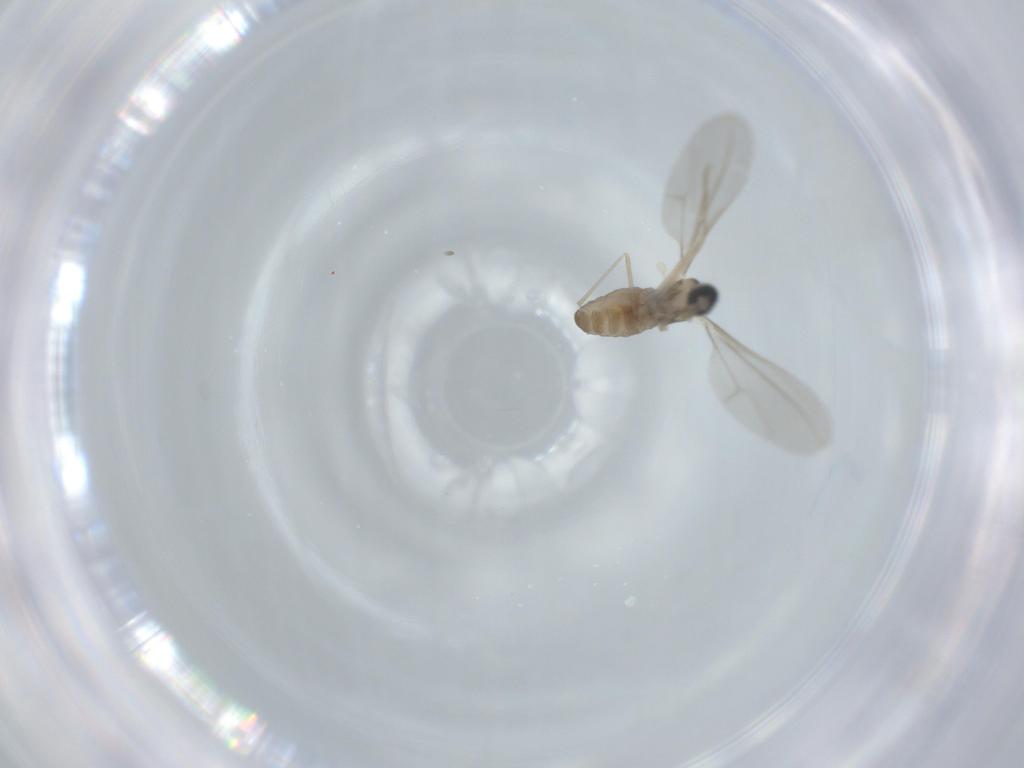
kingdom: Animalia
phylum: Arthropoda
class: Insecta
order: Diptera
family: Cecidomyiidae
